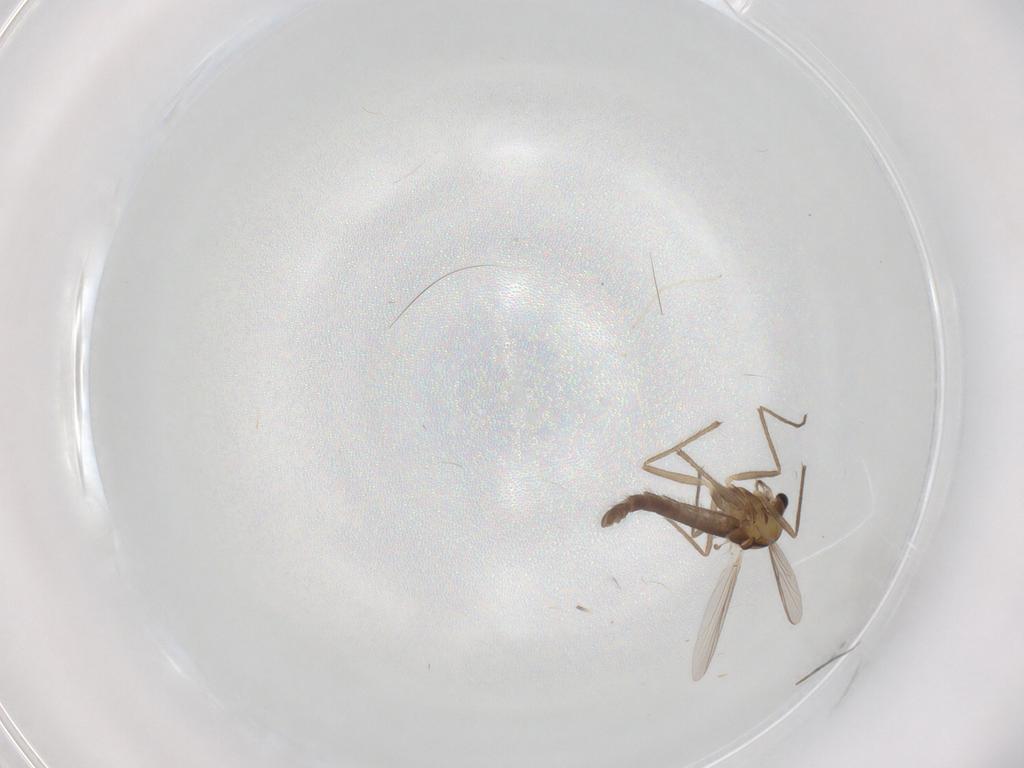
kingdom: Animalia
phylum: Arthropoda
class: Insecta
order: Diptera
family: Chironomidae
